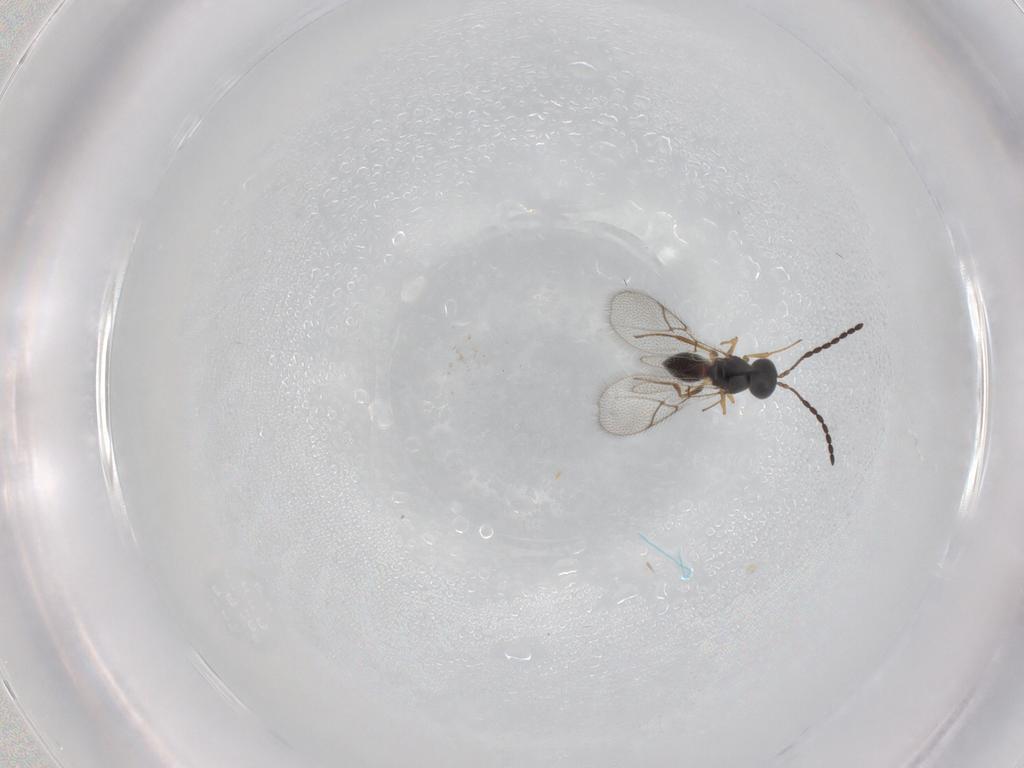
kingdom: Animalia
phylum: Arthropoda
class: Insecta
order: Hymenoptera
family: Figitidae
